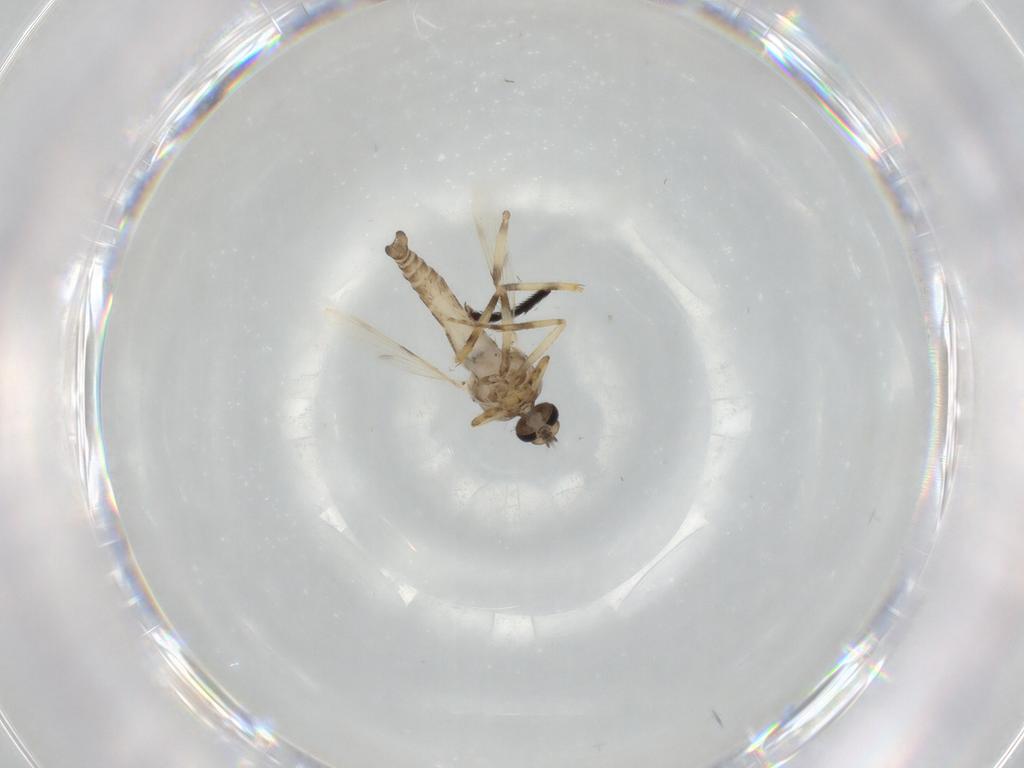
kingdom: Animalia
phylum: Arthropoda
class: Insecta
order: Diptera
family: Ceratopogonidae
